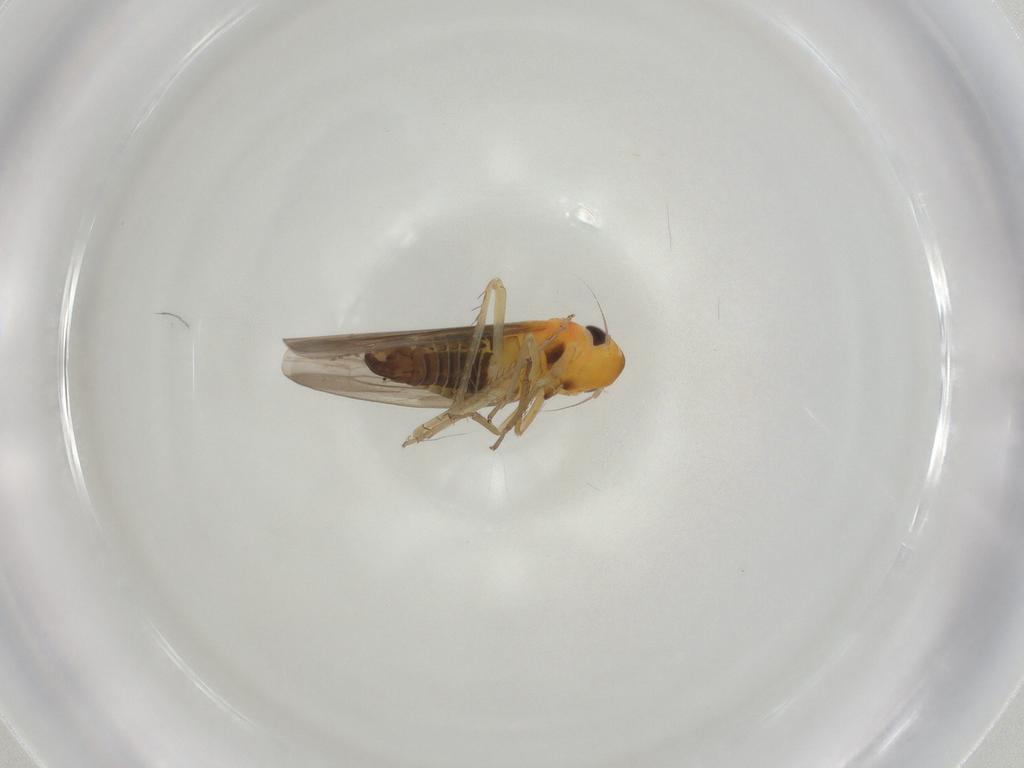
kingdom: Animalia
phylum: Arthropoda
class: Insecta
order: Hemiptera
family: Cicadellidae
